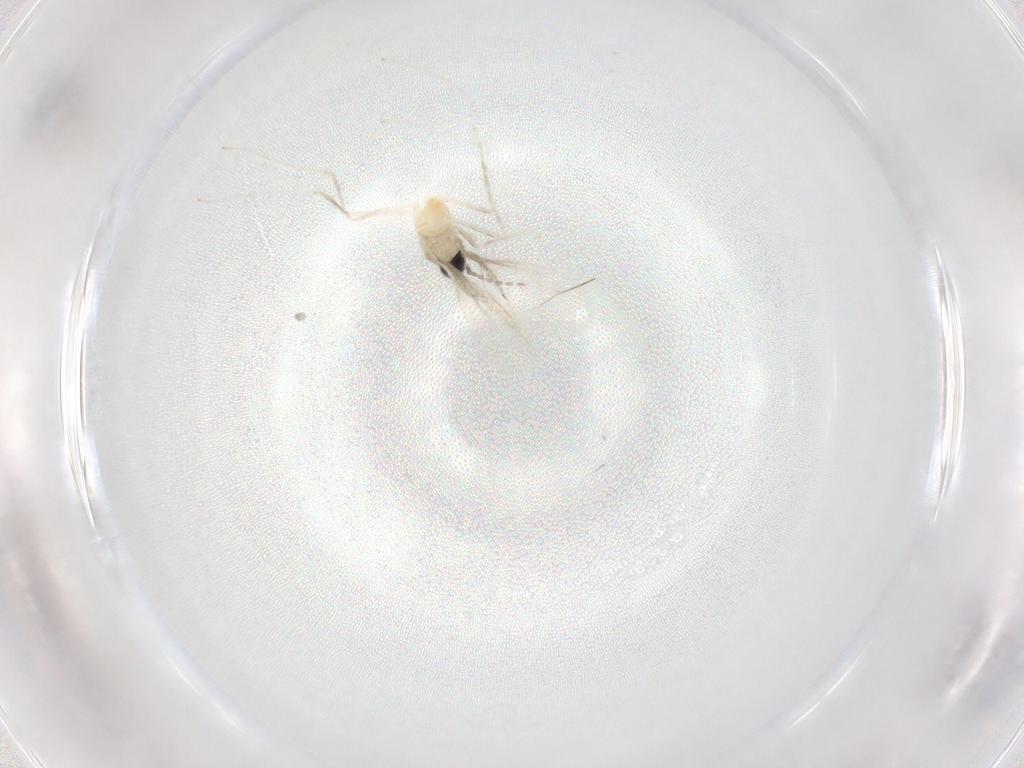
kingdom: Animalia
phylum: Arthropoda
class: Insecta
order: Diptera
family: Cecidomyiidae
